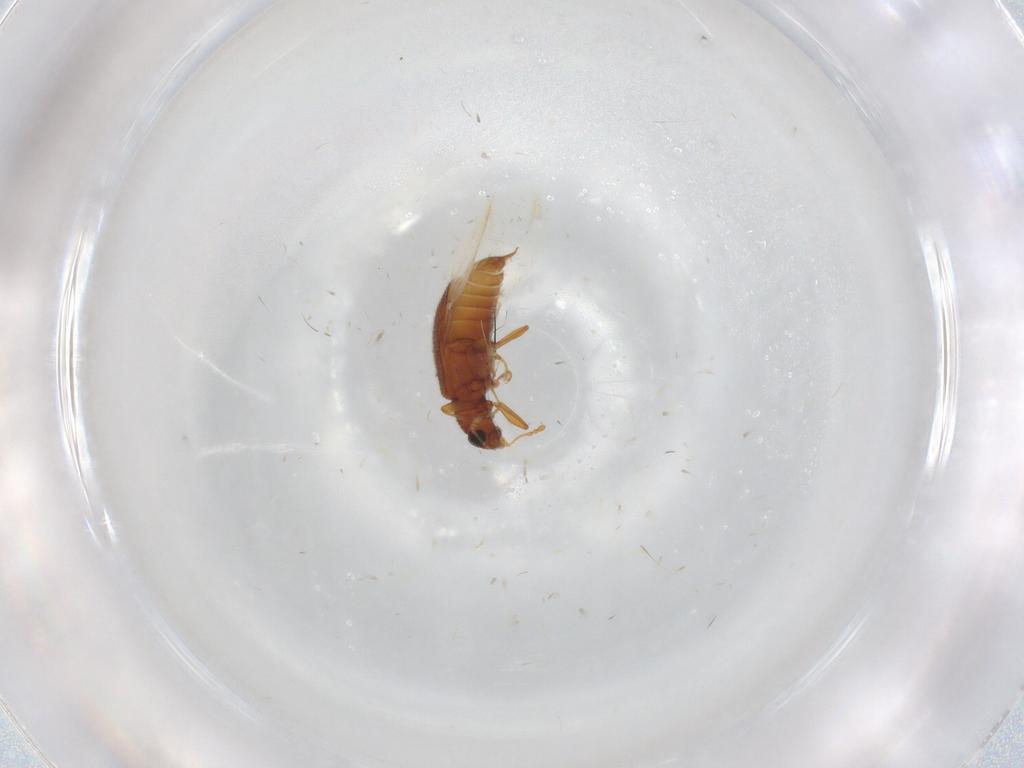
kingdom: Animalia
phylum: Arthropoda
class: Insecta
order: Coleoptera
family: Latridiidae
